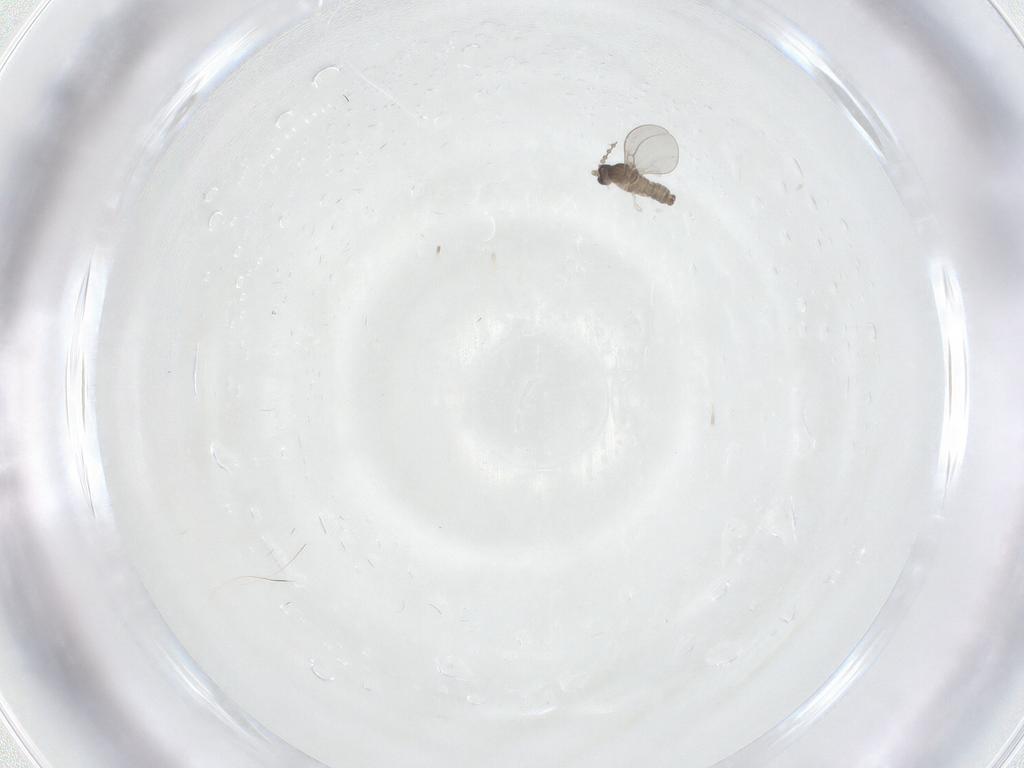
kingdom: Animalia
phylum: Arthropoda
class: Insecta
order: Diptera
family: Cecidomyiidae
